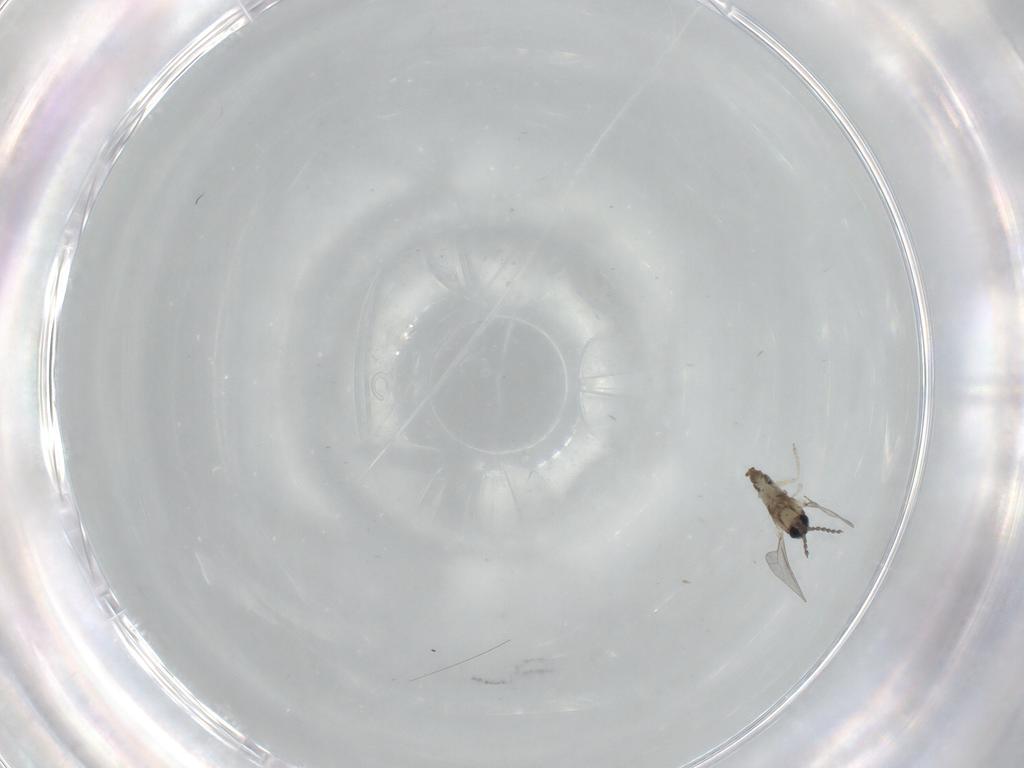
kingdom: Animalia
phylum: Arthropoda
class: Insecta
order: Diptera
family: Cecidomyiidae
